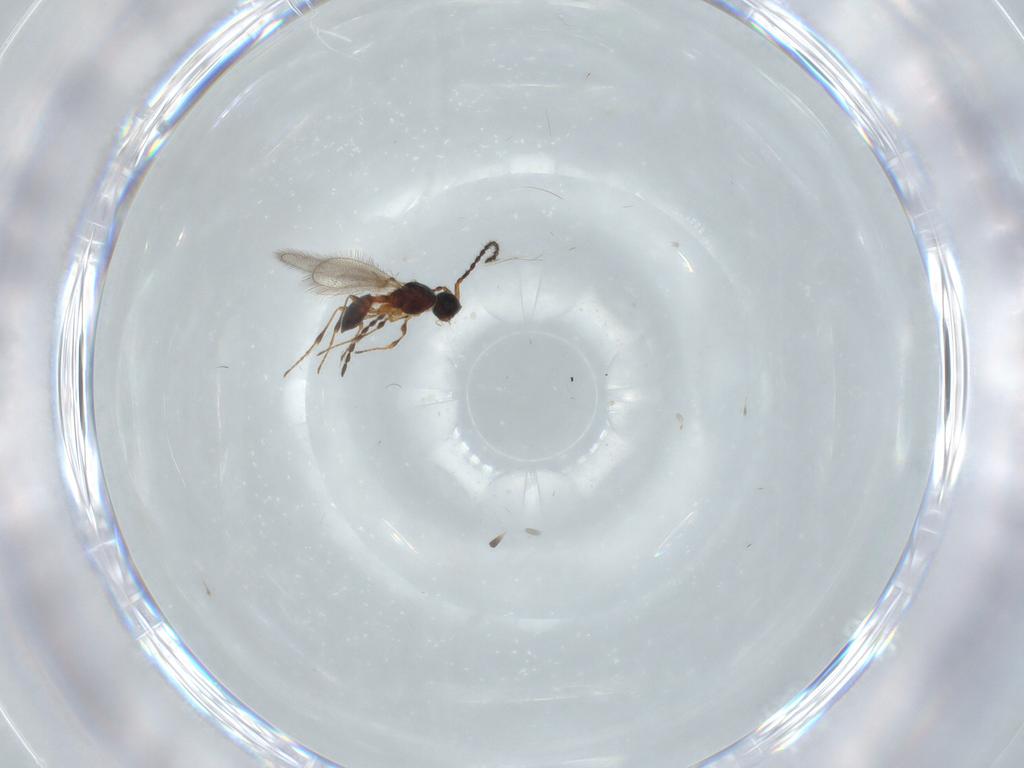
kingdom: Animalia
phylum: Arthropoda
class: Insecta
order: Hymenoptera
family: Diapriidae
